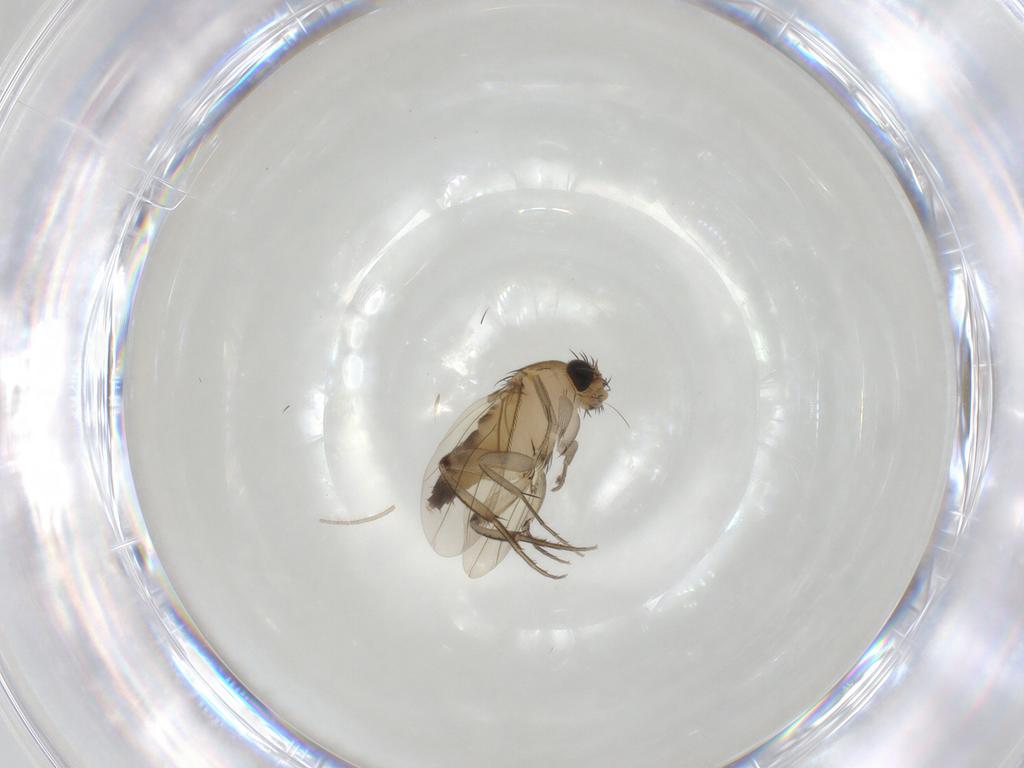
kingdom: Animalia
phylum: Arthropoda
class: Insecta
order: Diptera
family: Phoridae
